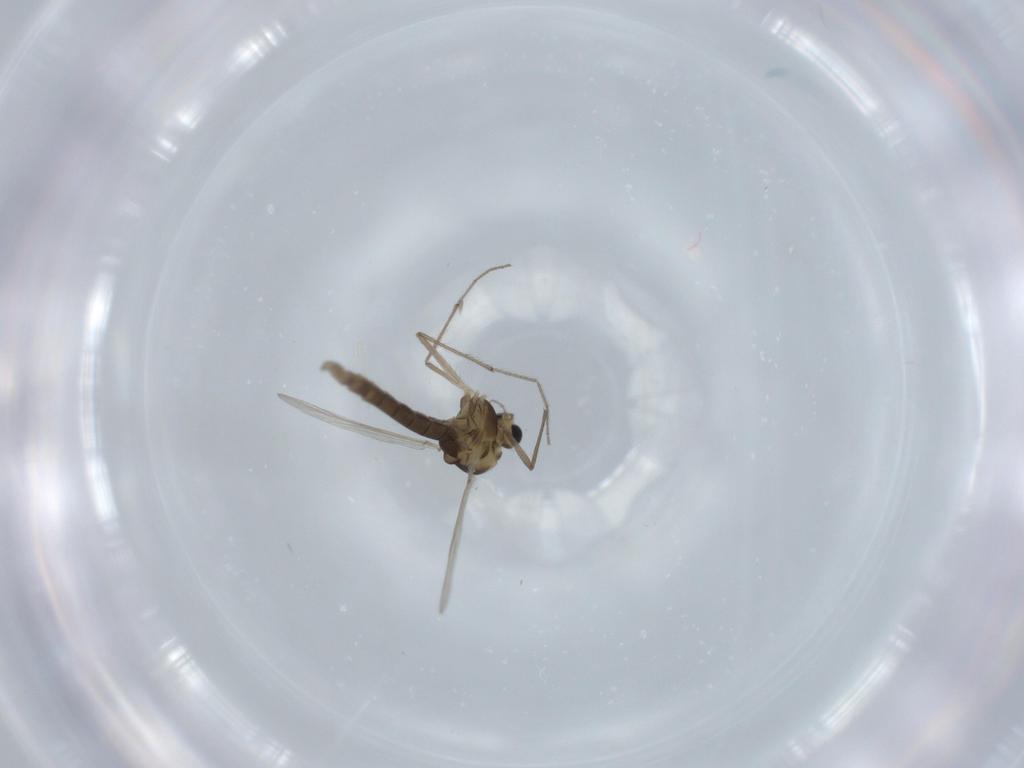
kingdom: Animalia
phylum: Arthropoda
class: Insecta
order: Diptera
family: Chironomidae
